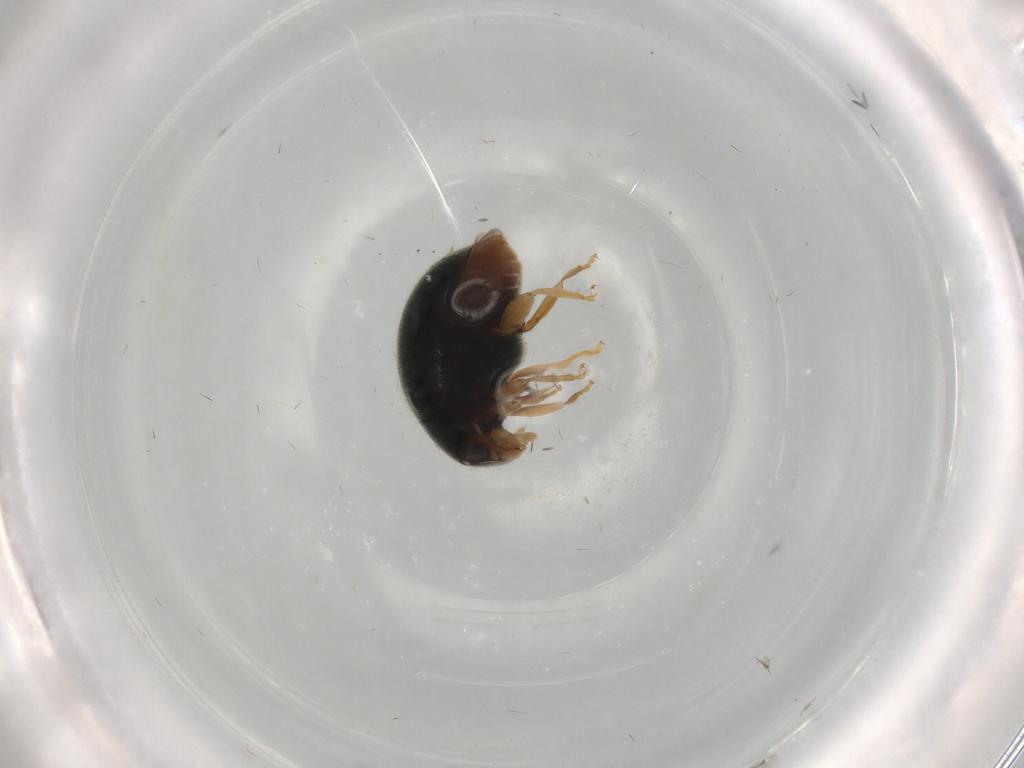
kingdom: Animalia
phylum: Arthropoda
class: Insecta
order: Coleoptera
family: Coccinellidae
